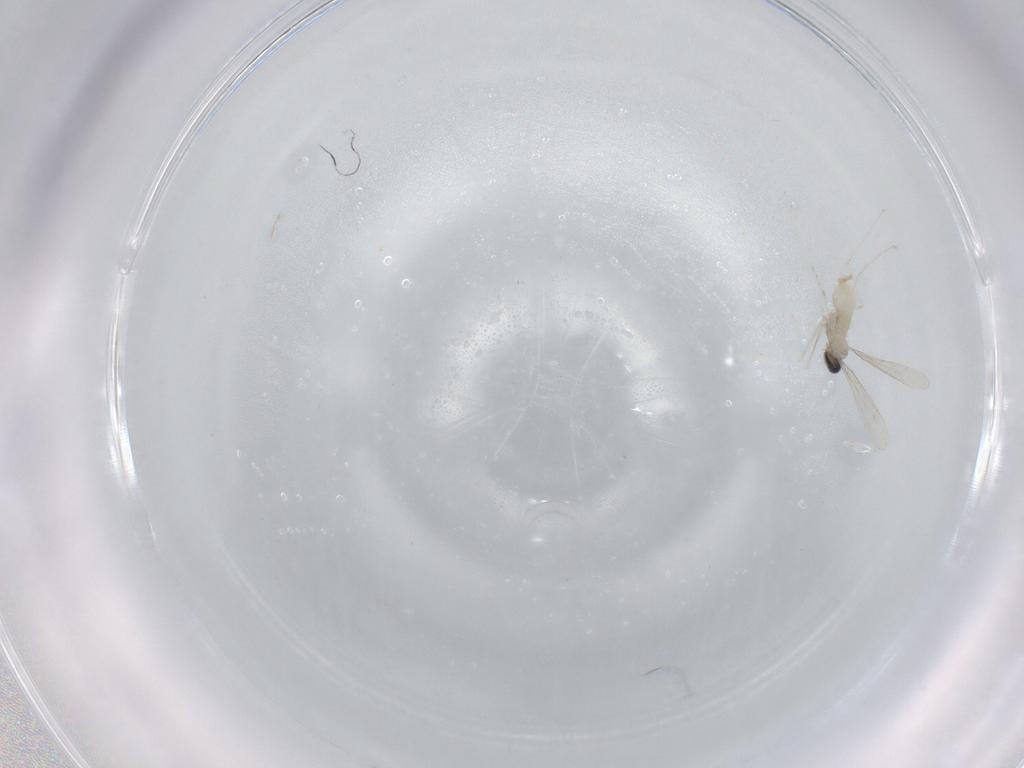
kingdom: Animalia
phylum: Arthropoda
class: Insecta
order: Diptera
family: Cecidomyiidae
